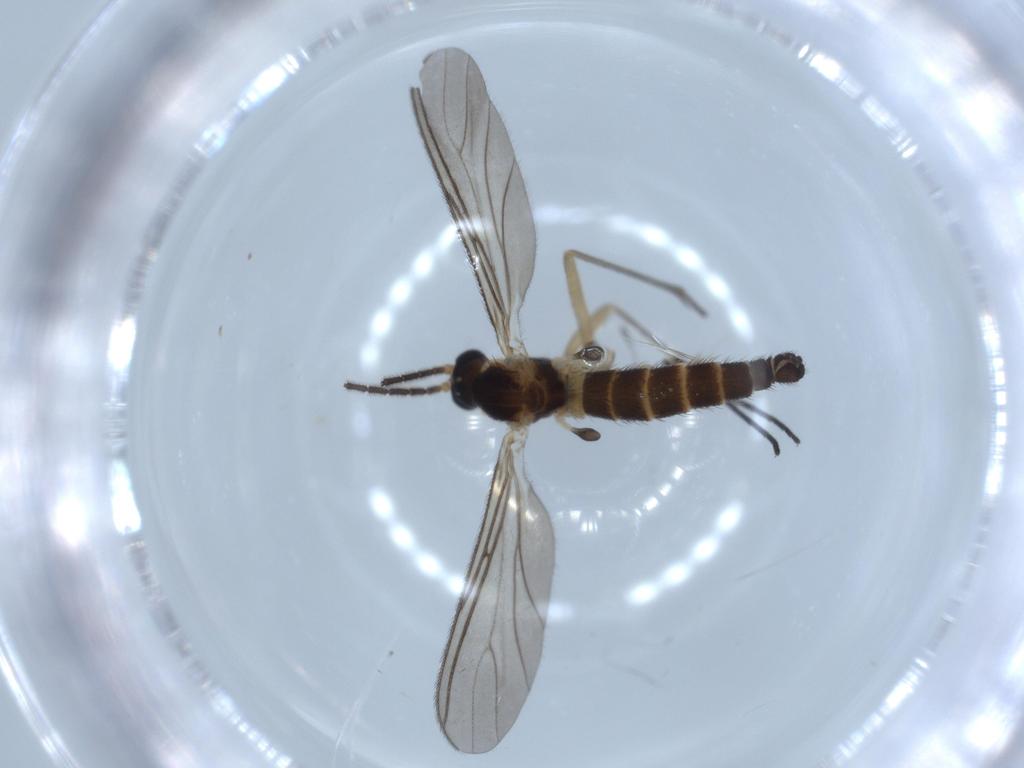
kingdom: Animalia
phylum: Arthropoda
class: Insecta
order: Diptera
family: Cecidomyiidae
